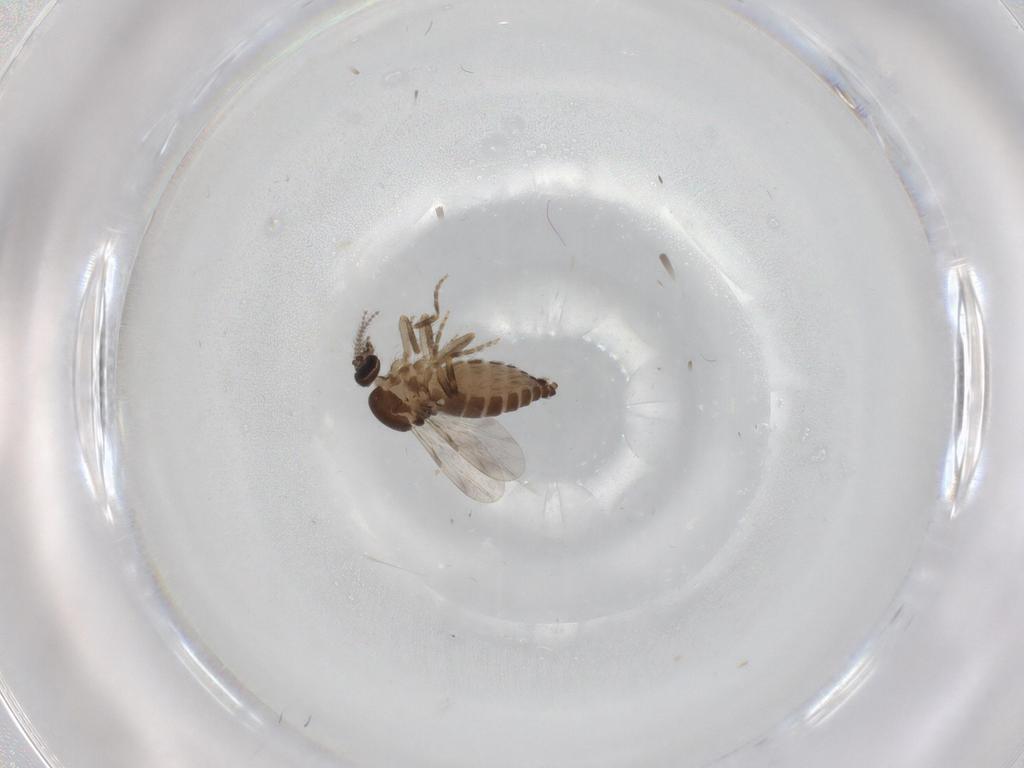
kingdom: Animalia
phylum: Arthropoda
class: Insecta
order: Diptera
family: Ceratopogonidae
